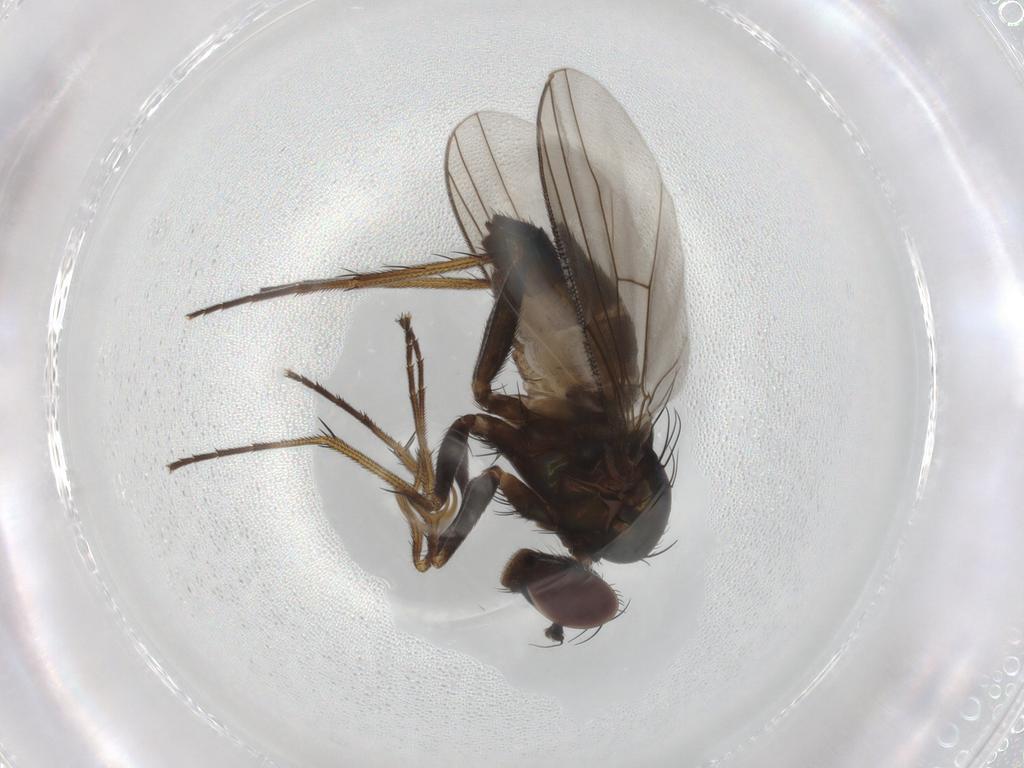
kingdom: Animalia
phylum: Arthropoda
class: Insecta
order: Diptera
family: Dolichopodidae
